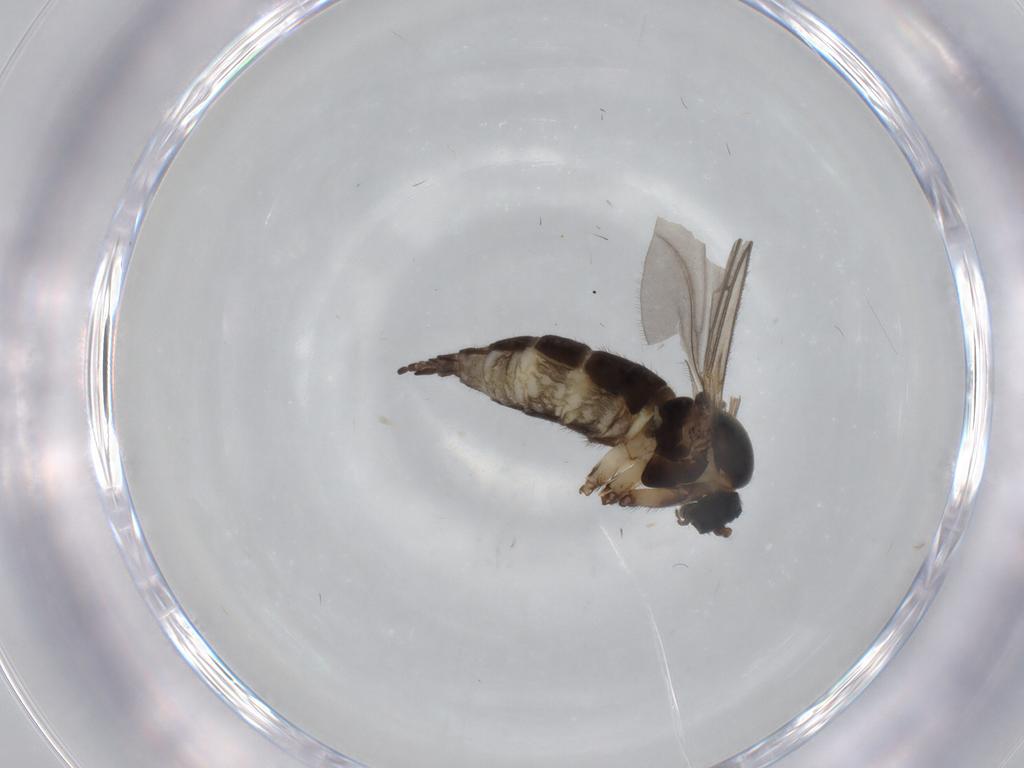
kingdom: Animalia
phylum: Arthropoda
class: Insecta
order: Diptera
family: Sciaridae
